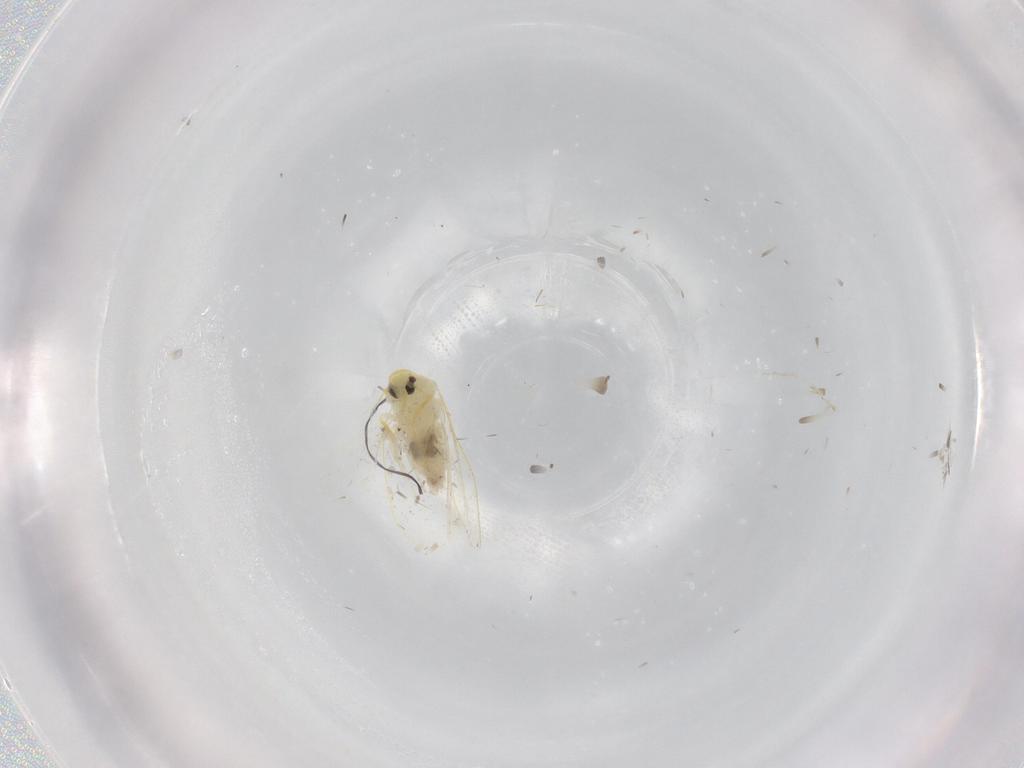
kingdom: Animalia
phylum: Arthropoda
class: Insecta
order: Hemiptera
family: Aleyrodidae
